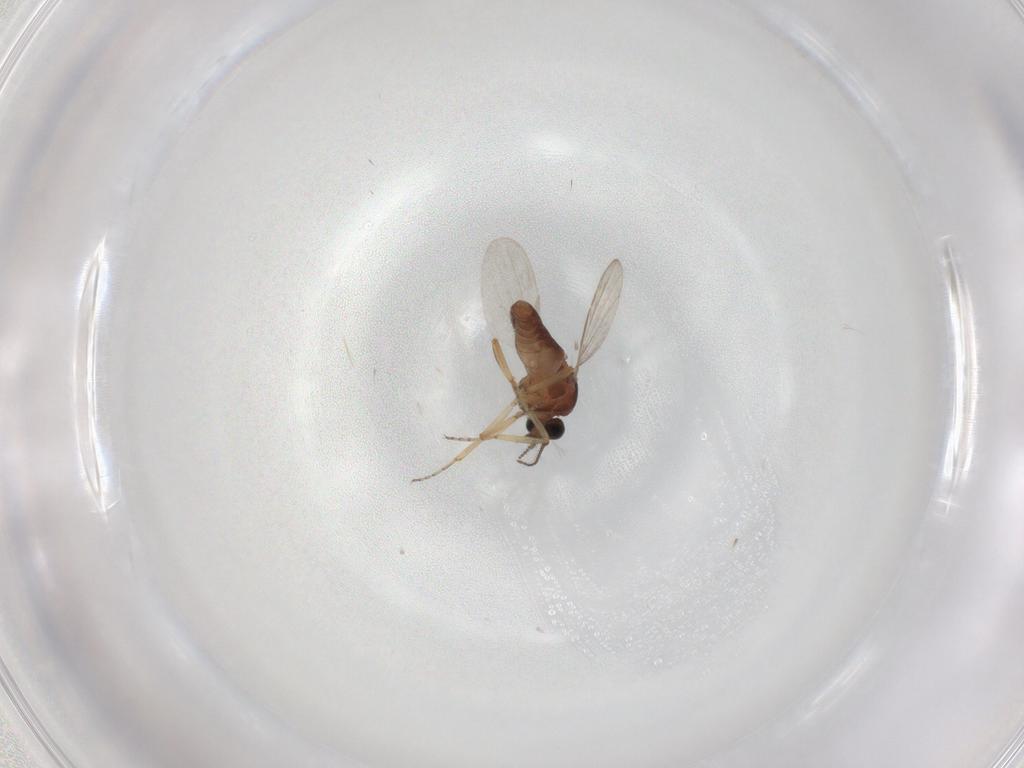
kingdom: Animalia
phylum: Arthropoda
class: Insecta
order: Diptera
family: Ceratopogonidae
